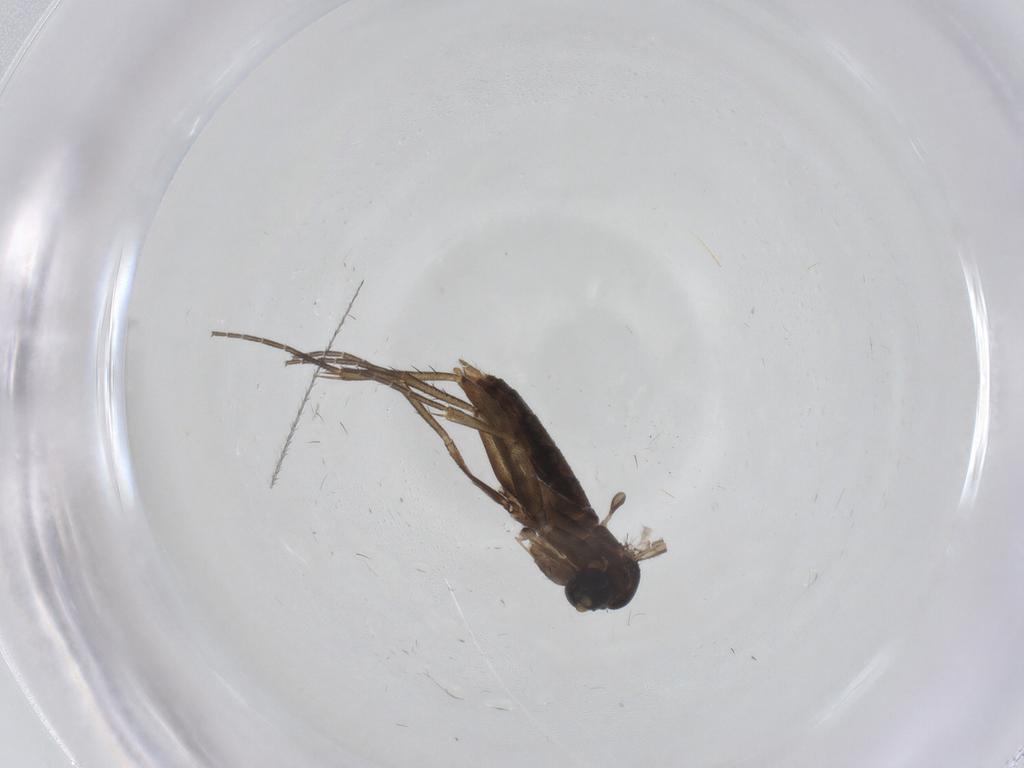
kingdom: Animalia
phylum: Arthropoda
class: Insecta
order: Diptera
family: Mycetophilidae
